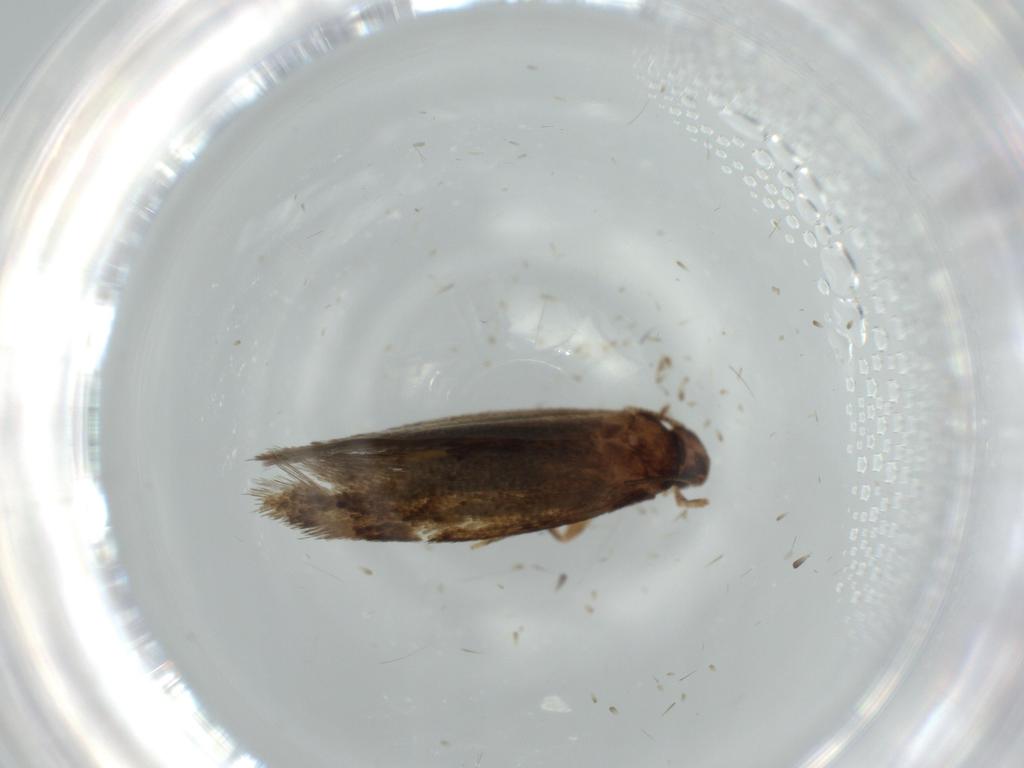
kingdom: Animalia
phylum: Arthropoda
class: Insecta
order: Lepidoptera
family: Tineidae
